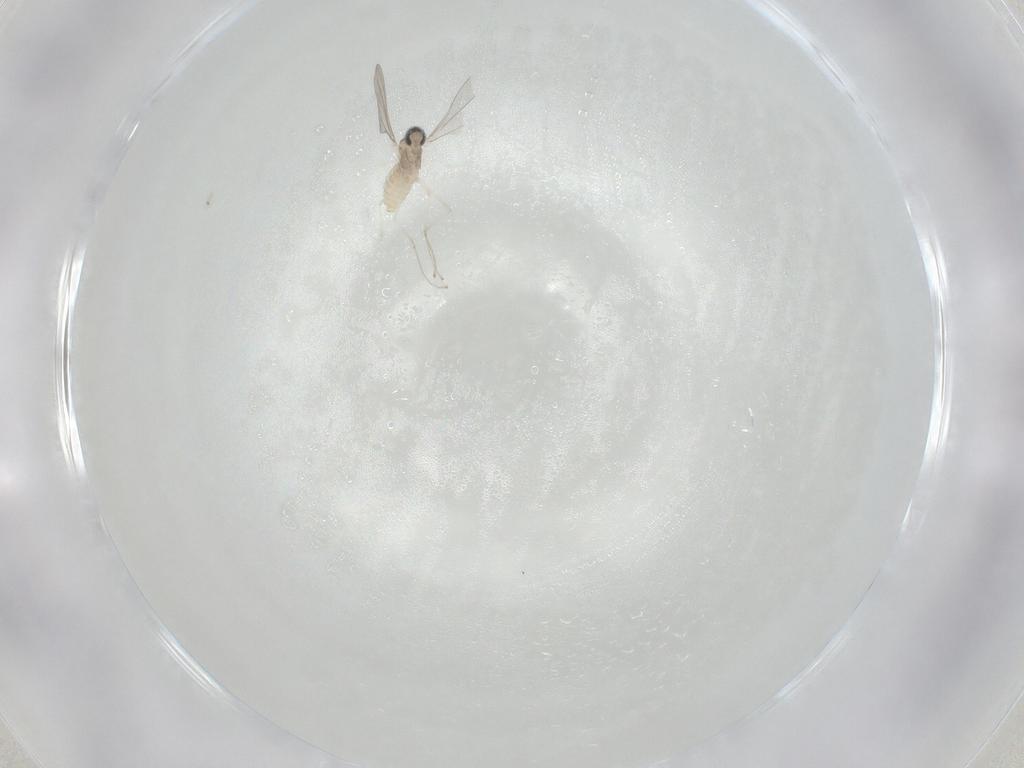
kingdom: Animalia
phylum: Arthropoda
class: Insecta
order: Diptera
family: Cecidomyiidae
